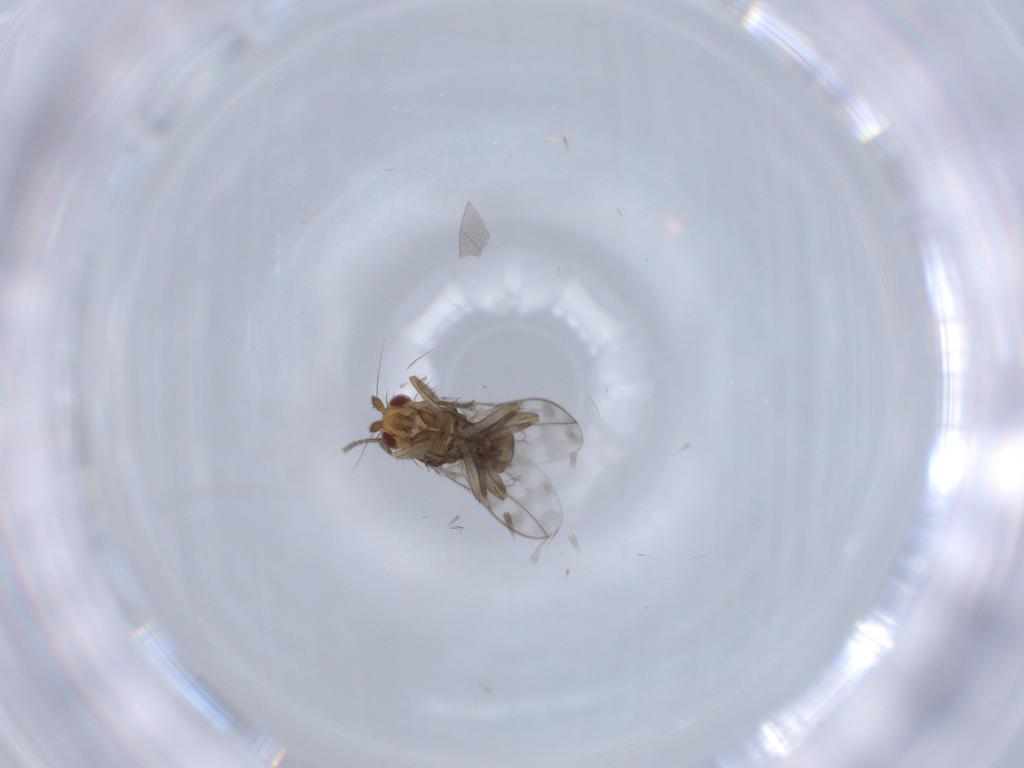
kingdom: Animalia
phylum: Arthropoda
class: Insecta
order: Diptera
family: Sphaeroceridae
